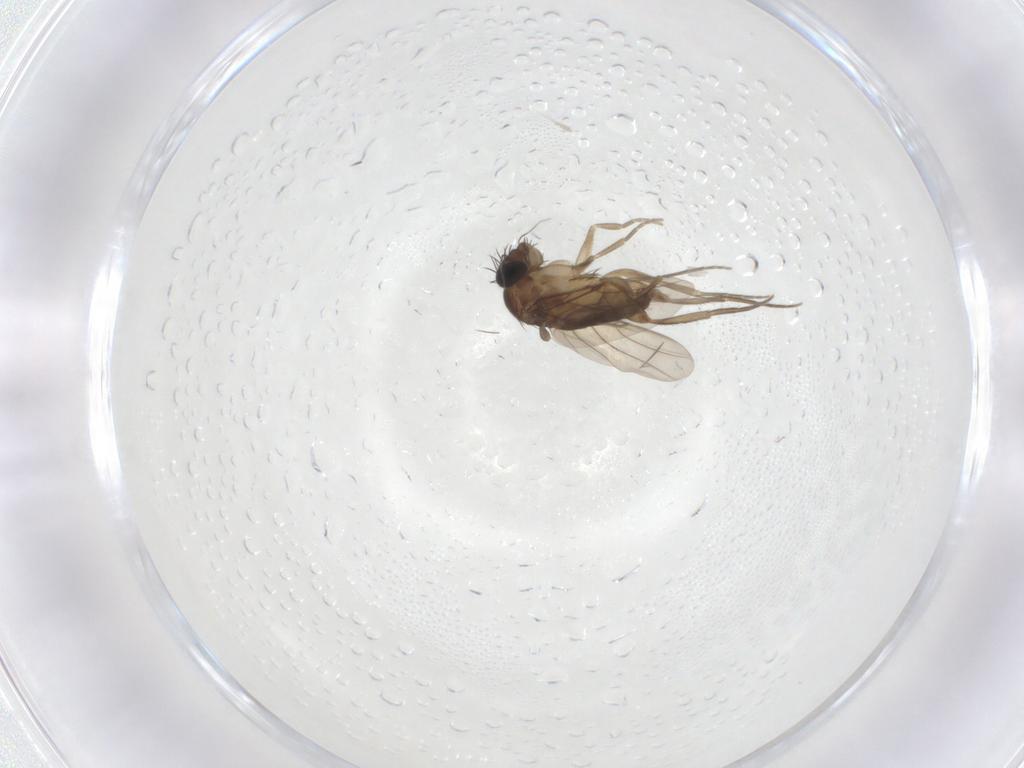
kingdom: Animalia
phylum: Arthropoda
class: Insecta
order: Diptera
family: Phoridae
